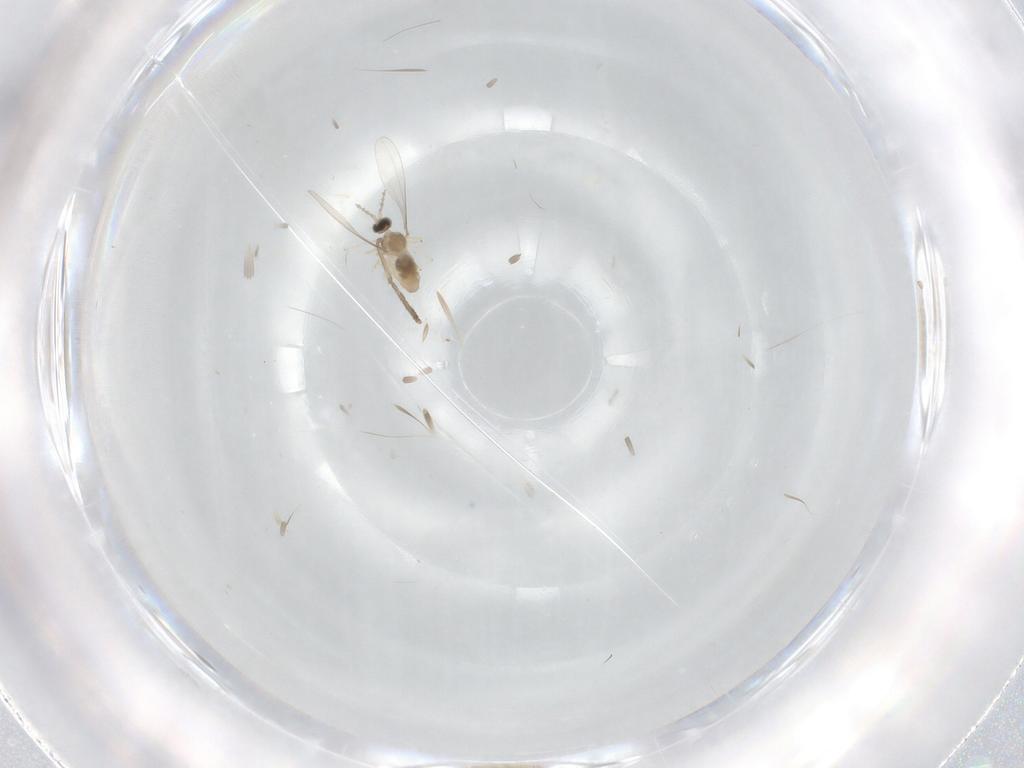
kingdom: Animalia
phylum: Arthropoda
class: Insecta
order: Diptera
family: Cecidomyiidae
